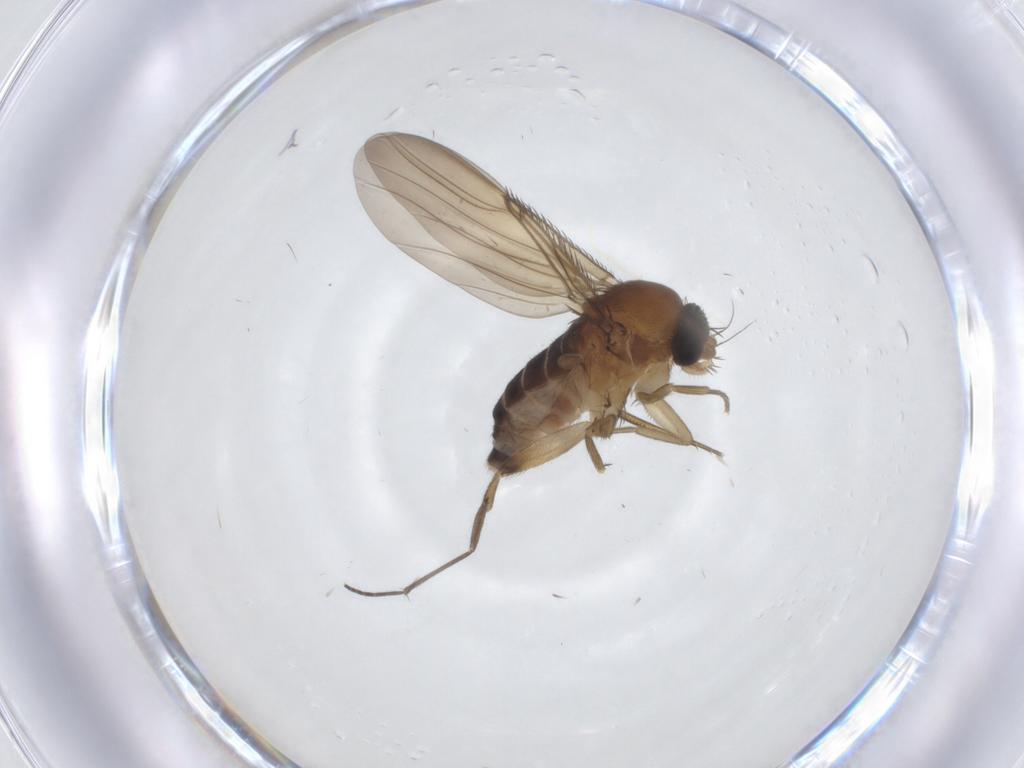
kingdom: Animalia
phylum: Arthropoda
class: Insecta
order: Diptera
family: Phoridae
